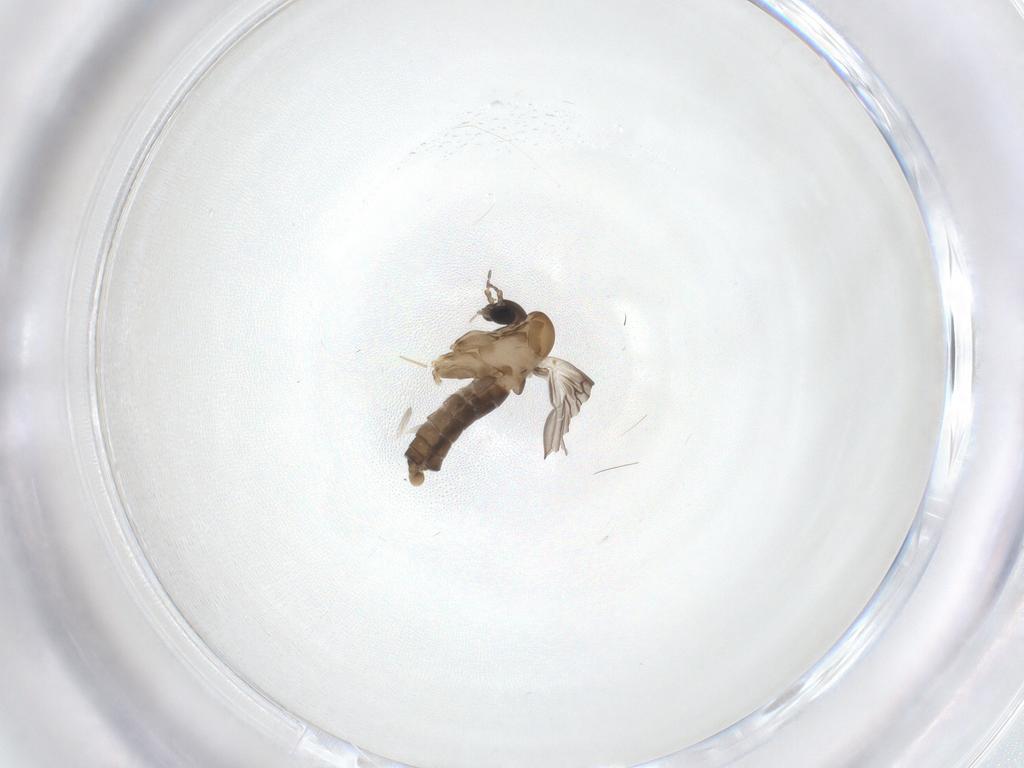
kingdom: Animalia
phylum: Arthropoda
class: Insecta
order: Diptera
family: Psychodidae
